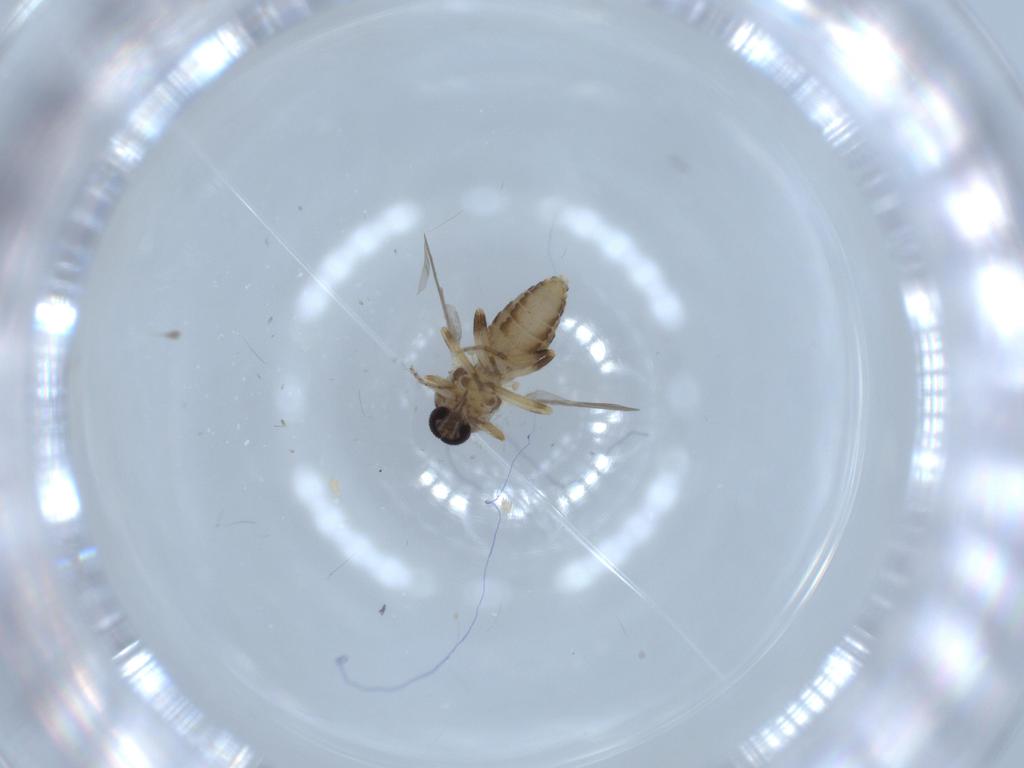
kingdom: Animalia
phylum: Arthropoda
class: Insecta
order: Diptera
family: Ceratopogonidae
